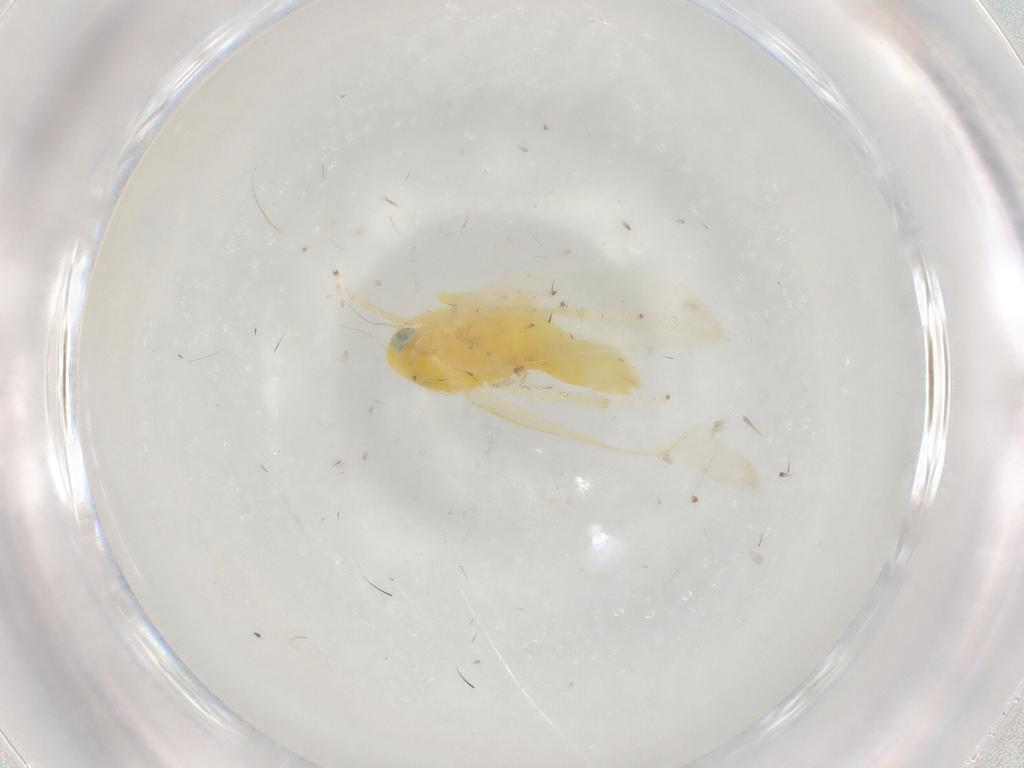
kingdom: Animalia
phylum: Arthropoda
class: Insecta
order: Hemiptera
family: Cicadellidae
